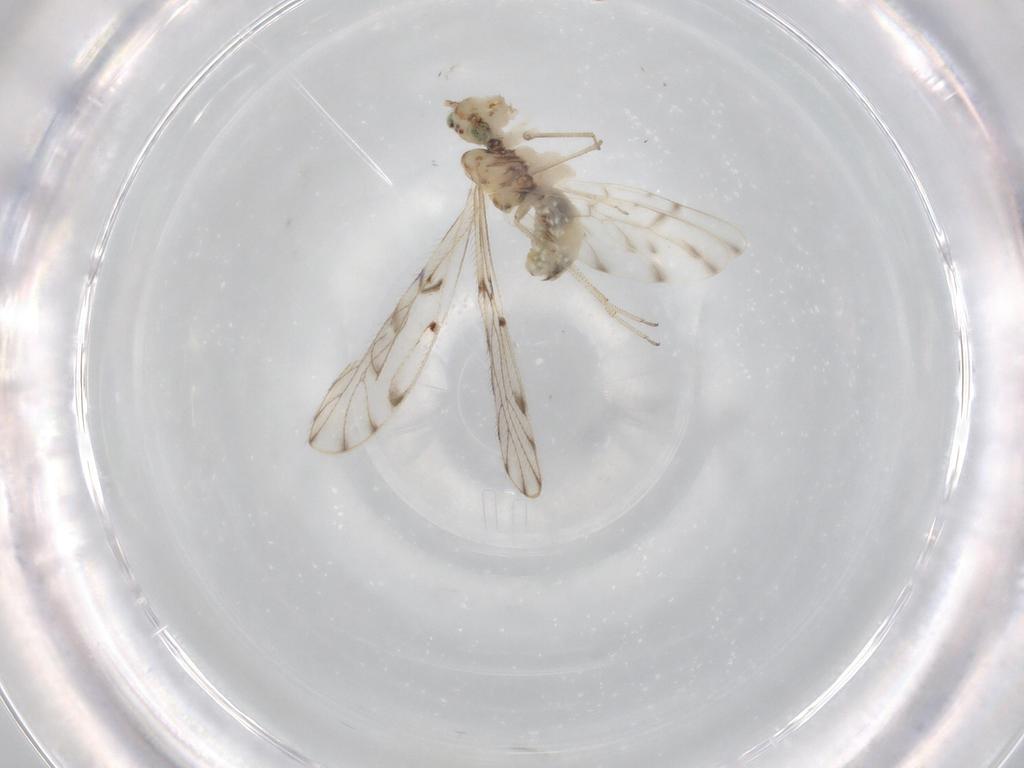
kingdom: Animalia
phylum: Arthropoda
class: Insecta
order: Psocodea
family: Ectopsocidae
